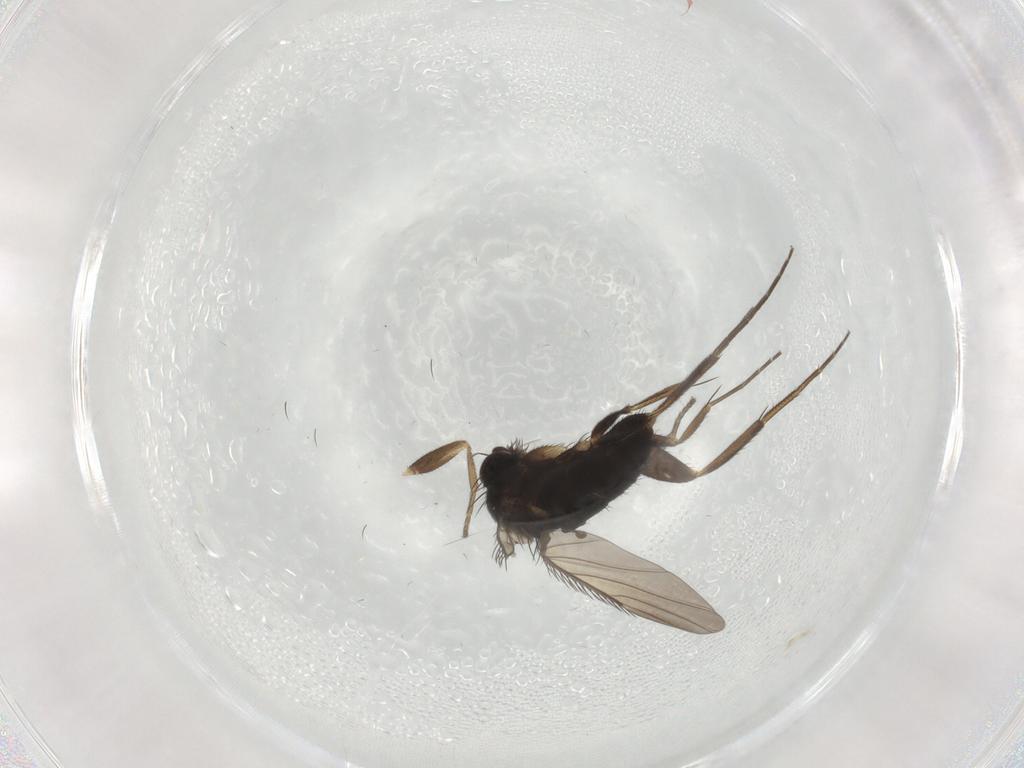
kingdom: Animalia
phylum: Arthropoda
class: Insecta
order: Diptera
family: Phoridae
